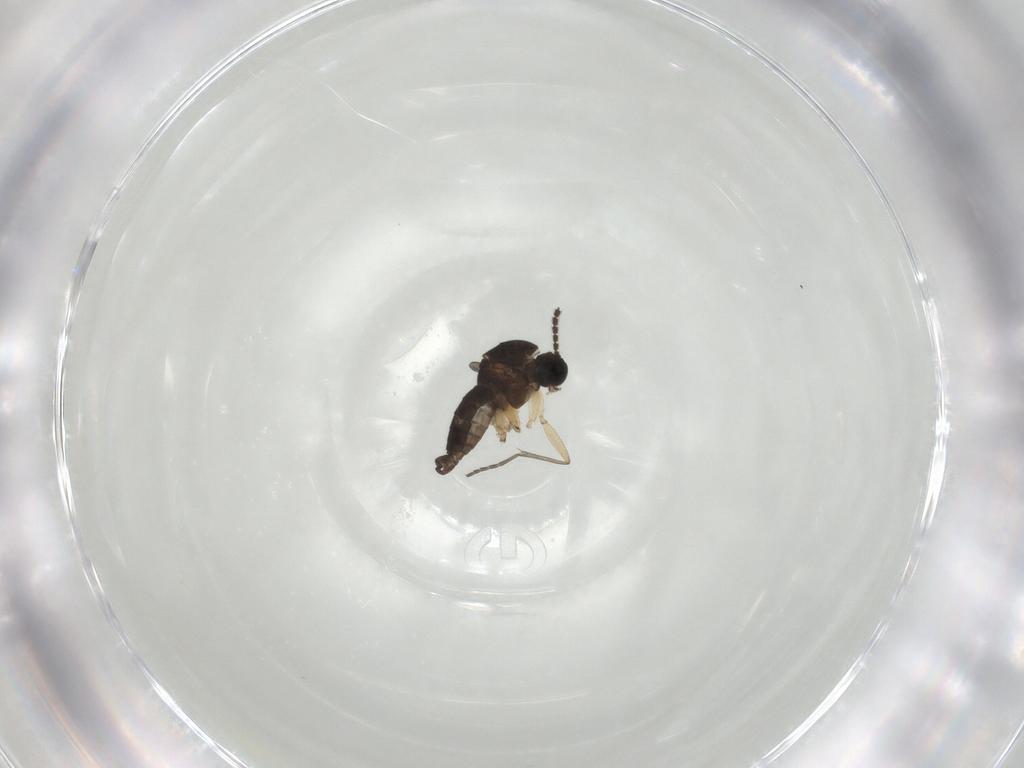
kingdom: Animalia
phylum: Arthropoda
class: Insecta
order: Diptera
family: Sciaridae
